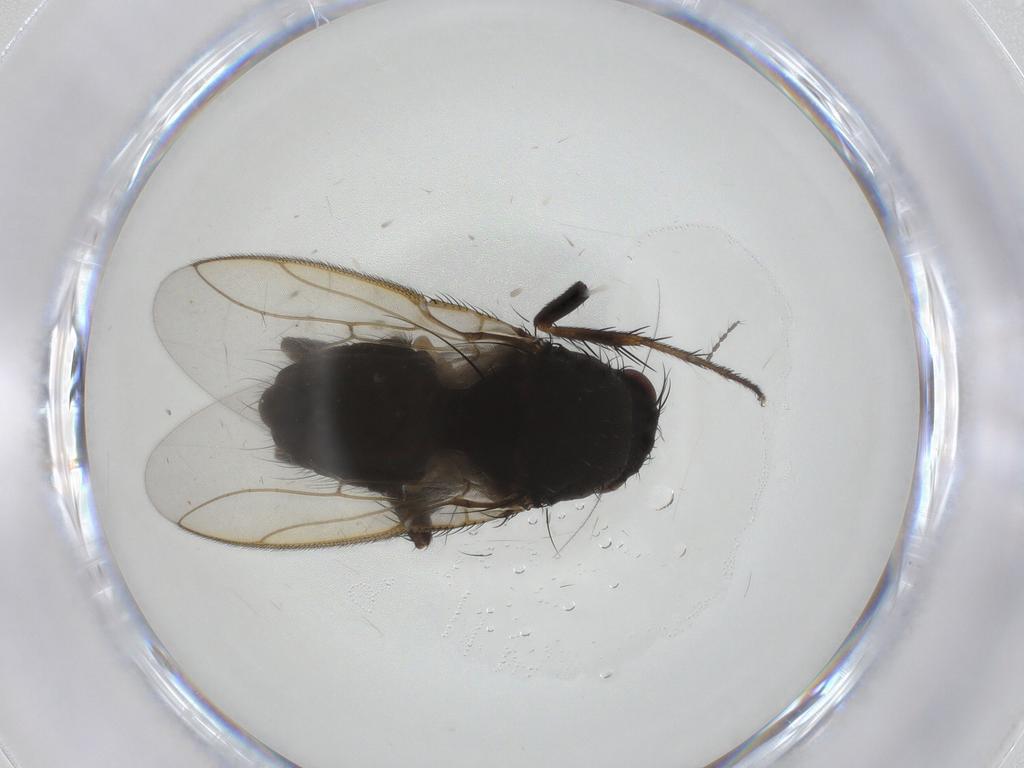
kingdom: Animalia
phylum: Arthropoda
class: Insecta
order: Diptera
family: Sphaeroceridae
